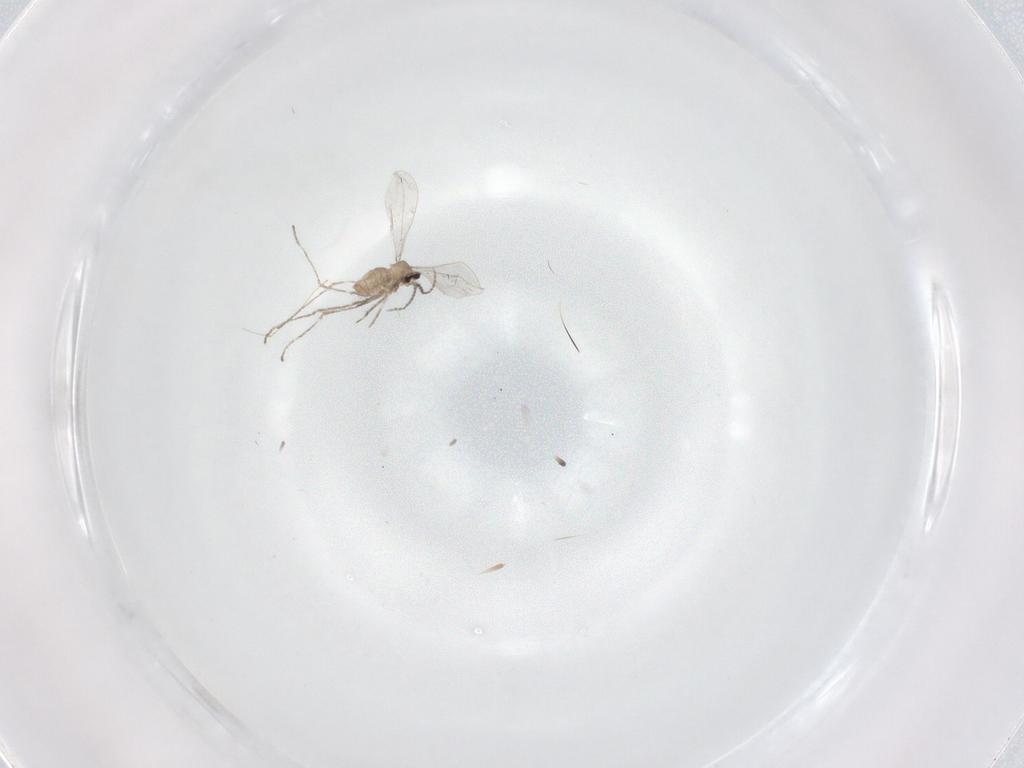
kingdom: Animalia
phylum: Arthropoda
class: Insecta
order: Diptera
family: Cecidomyiidae
